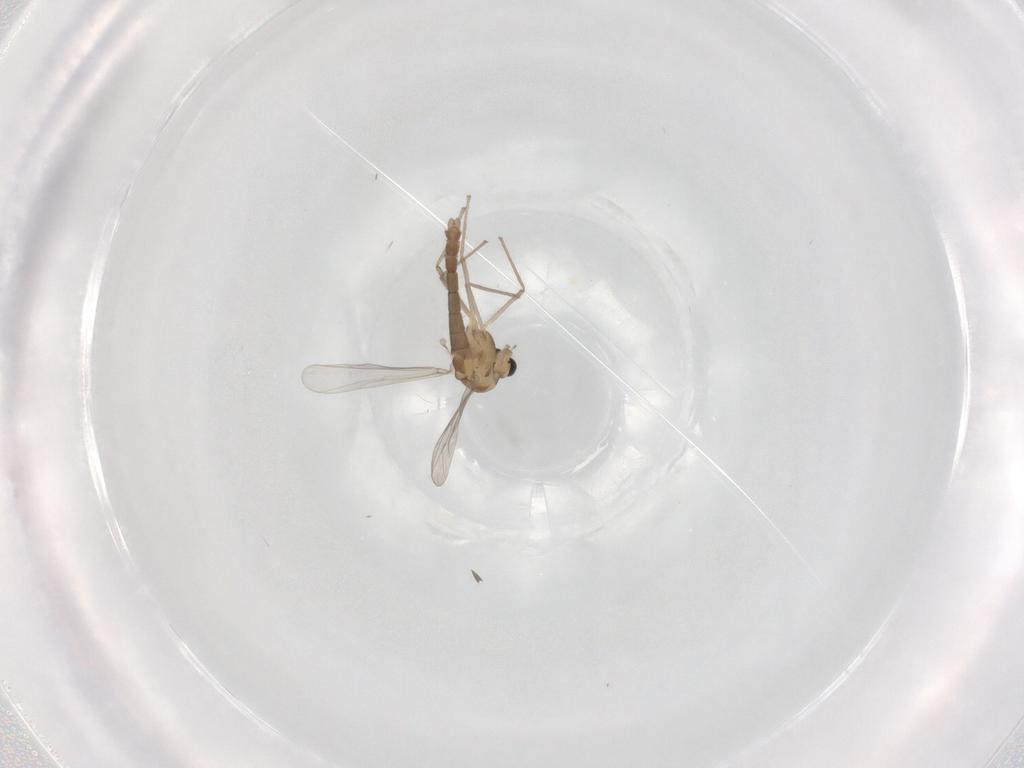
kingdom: Animalia
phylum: Arthropoda
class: Insecta
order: Diptera
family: Chironomidae
